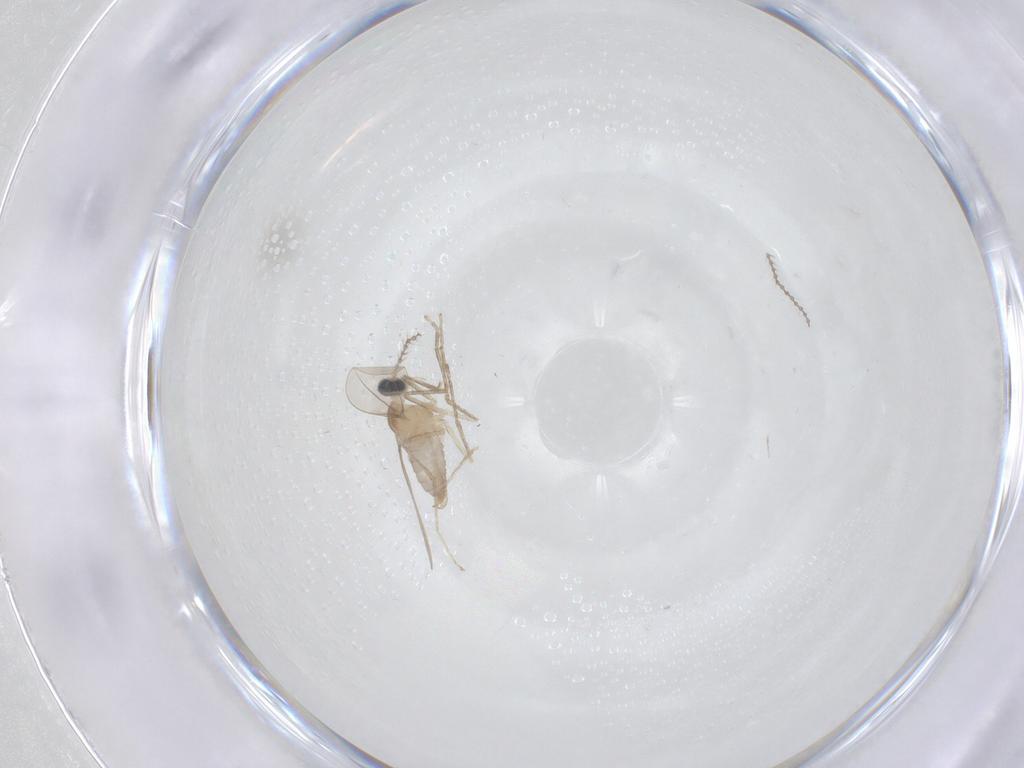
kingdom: Animalia
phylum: Arthropoda
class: Insecta
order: Diptera
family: Cecidomyiidae
